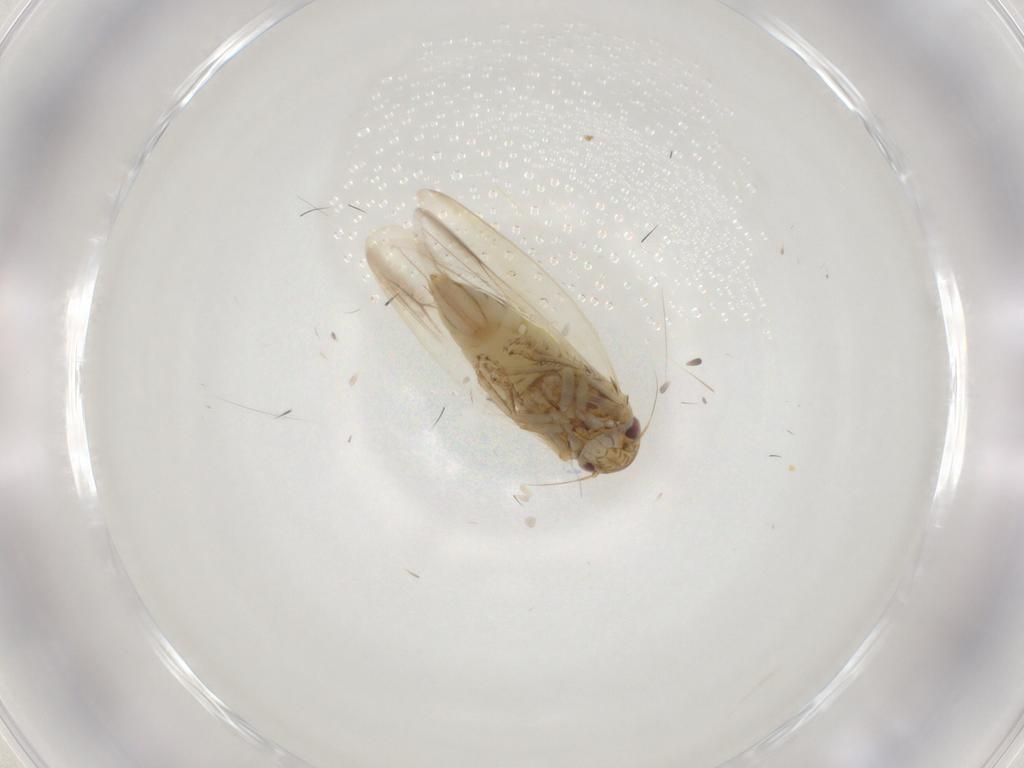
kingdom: Animalia
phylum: Arthropoda
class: Insecta
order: Hemiptera
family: Cicadellidae
